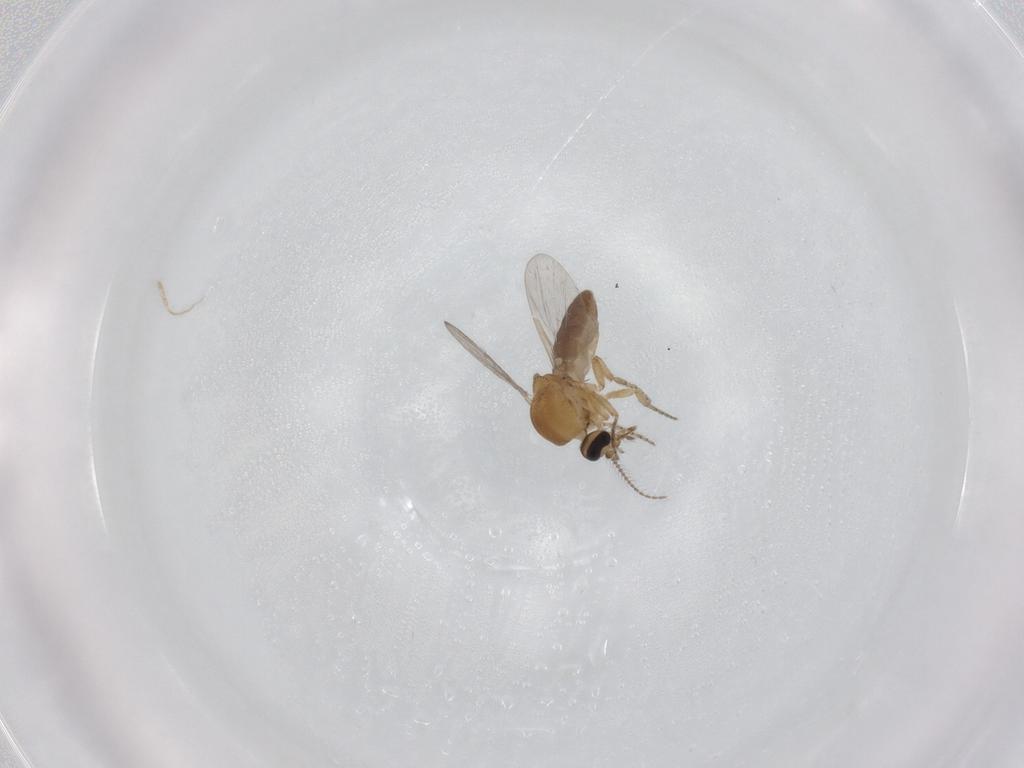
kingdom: Animalia
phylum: Arthropoda
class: Insecta
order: Diptera
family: Ceratopogonidae
